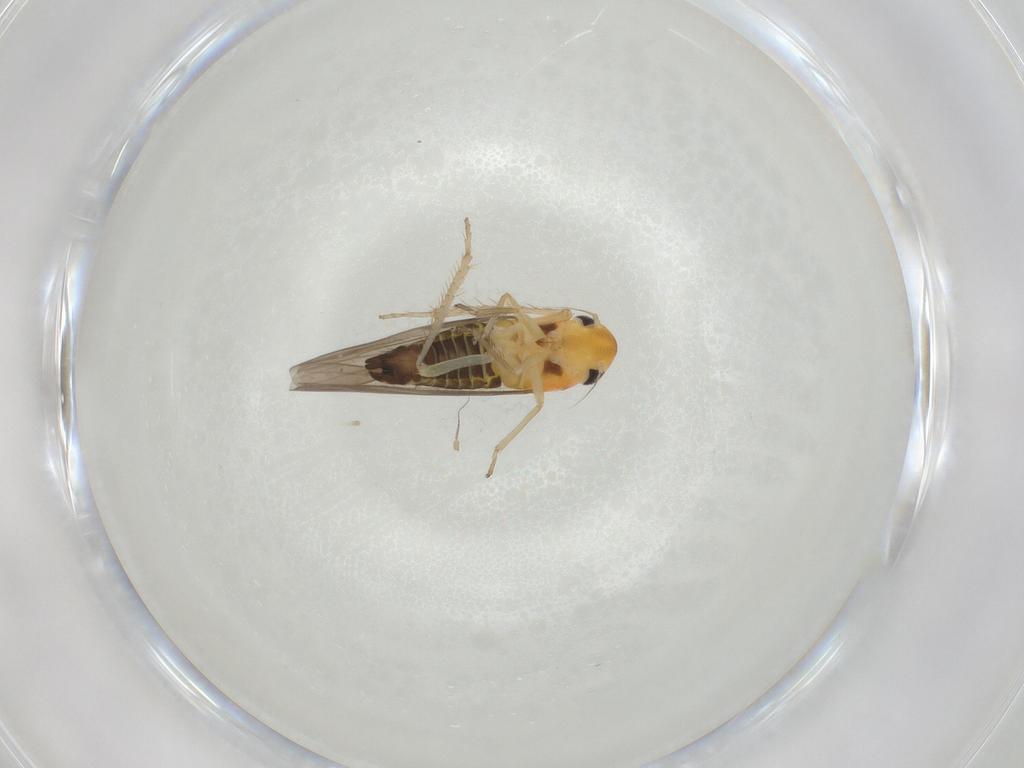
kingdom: Animalia
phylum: Arthropoda
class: Insecta
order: Hemiptera
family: Cicadellidae
